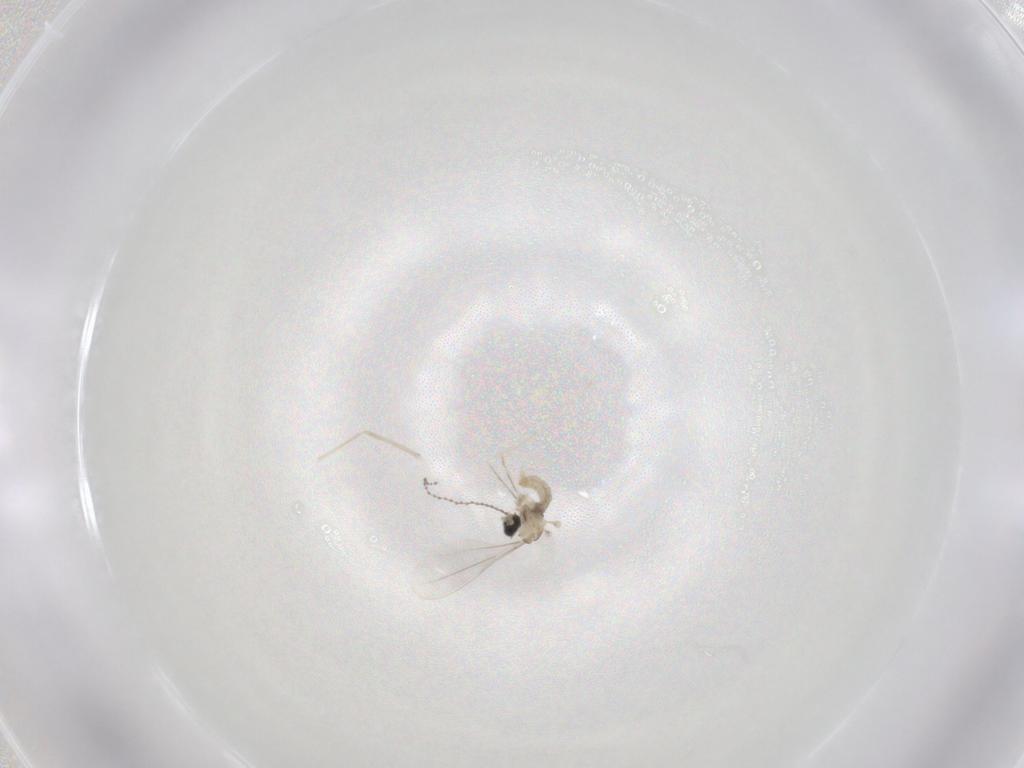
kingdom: Animalia
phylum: Arthropoda
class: Insecta
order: Diptera
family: Cecidomyiidae
